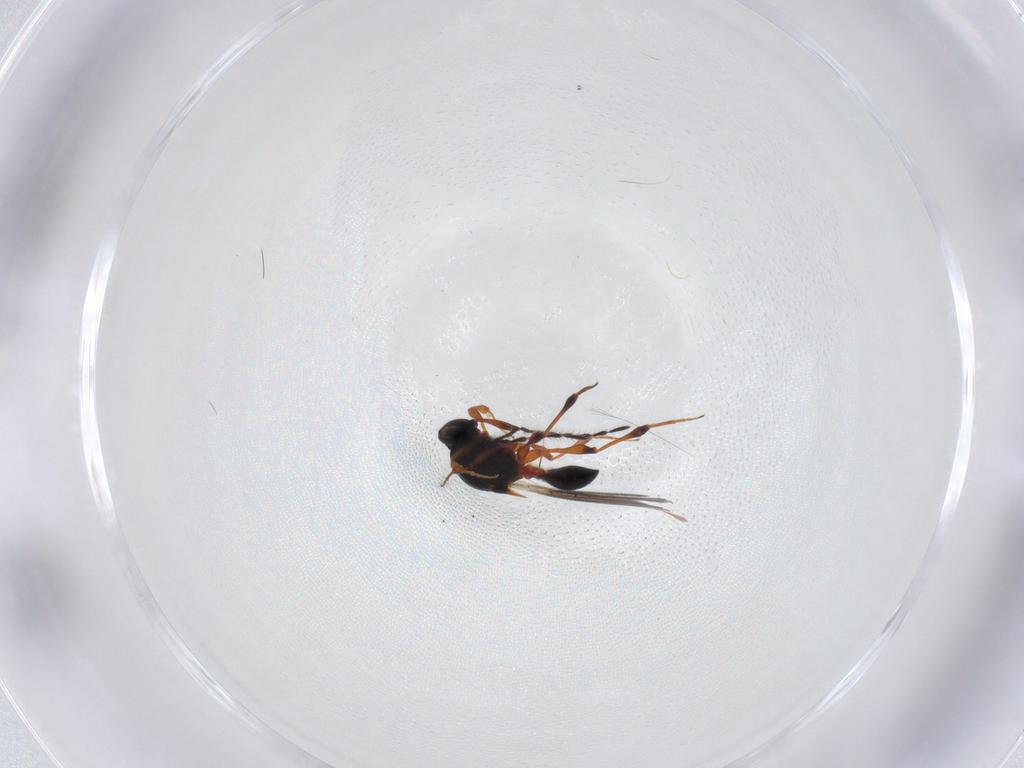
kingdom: Animalia
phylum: Arthropoda
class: Insecta
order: Hymenoptera
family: Platygastridae
